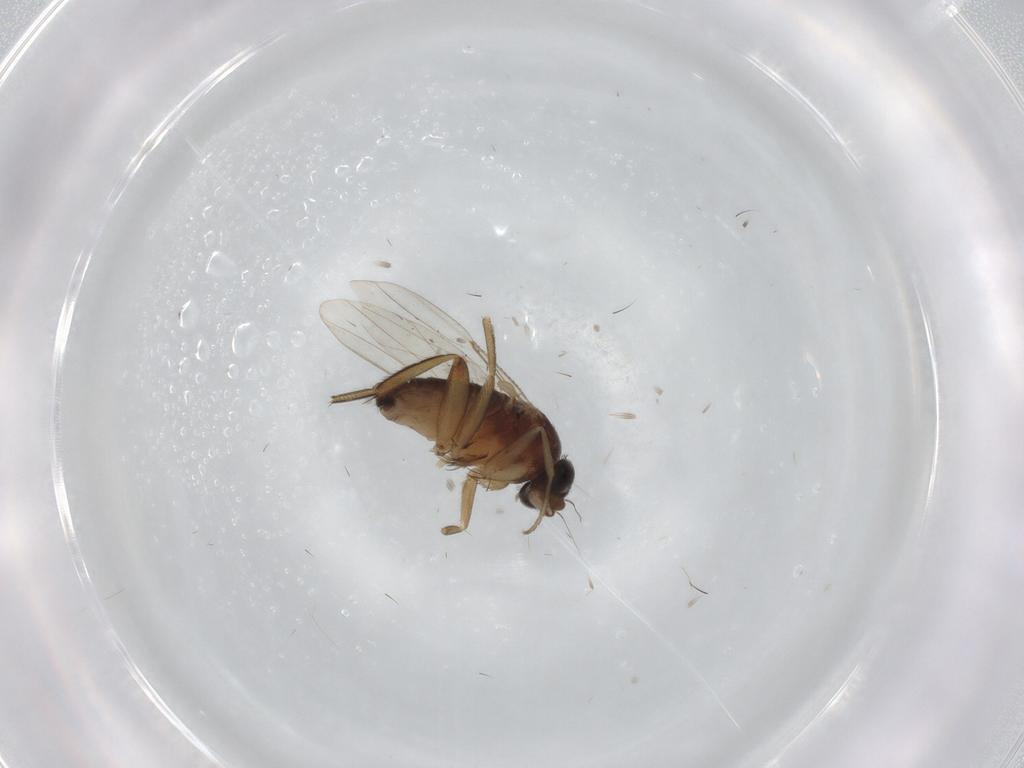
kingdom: Animalia
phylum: Arthropoda
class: Insecta
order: Diptera
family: Phoridae
